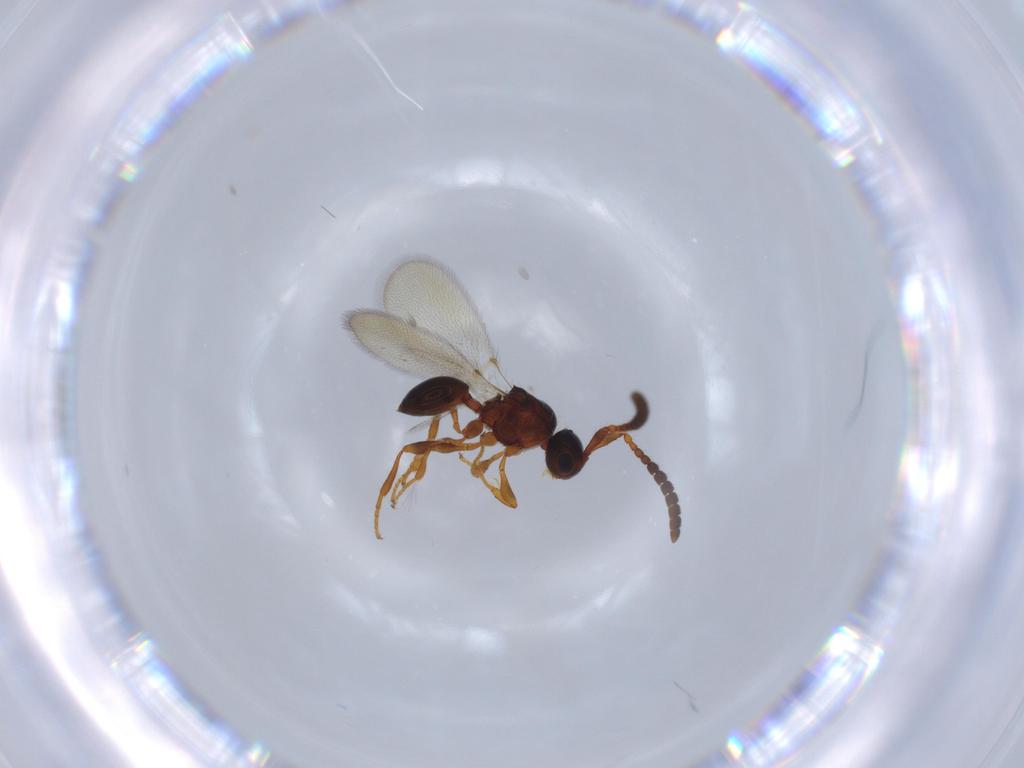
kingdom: Animalia
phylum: Arthropoda
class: Insecta
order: Hymenoptera
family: Diapriidae
